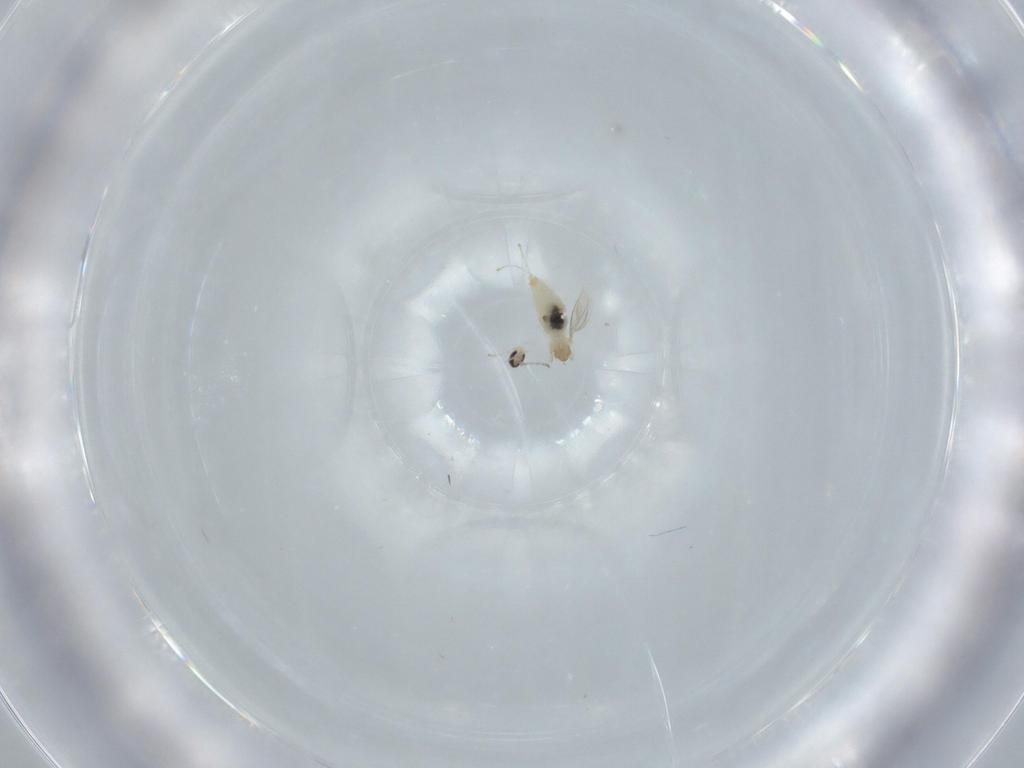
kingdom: Animalia
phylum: Arthropoda
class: Insecta
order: Diptera
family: Cecidomyiidae
